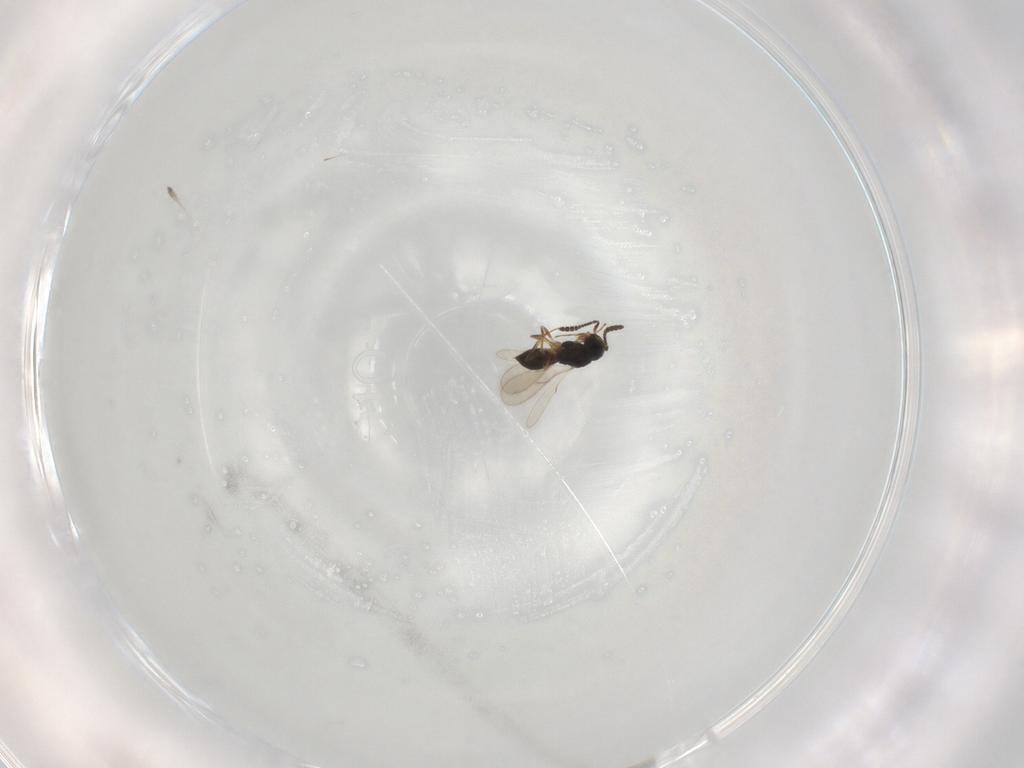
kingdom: Animalia
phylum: Arthropoda
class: Insecta
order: Hymenoptera
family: Scelionidae
